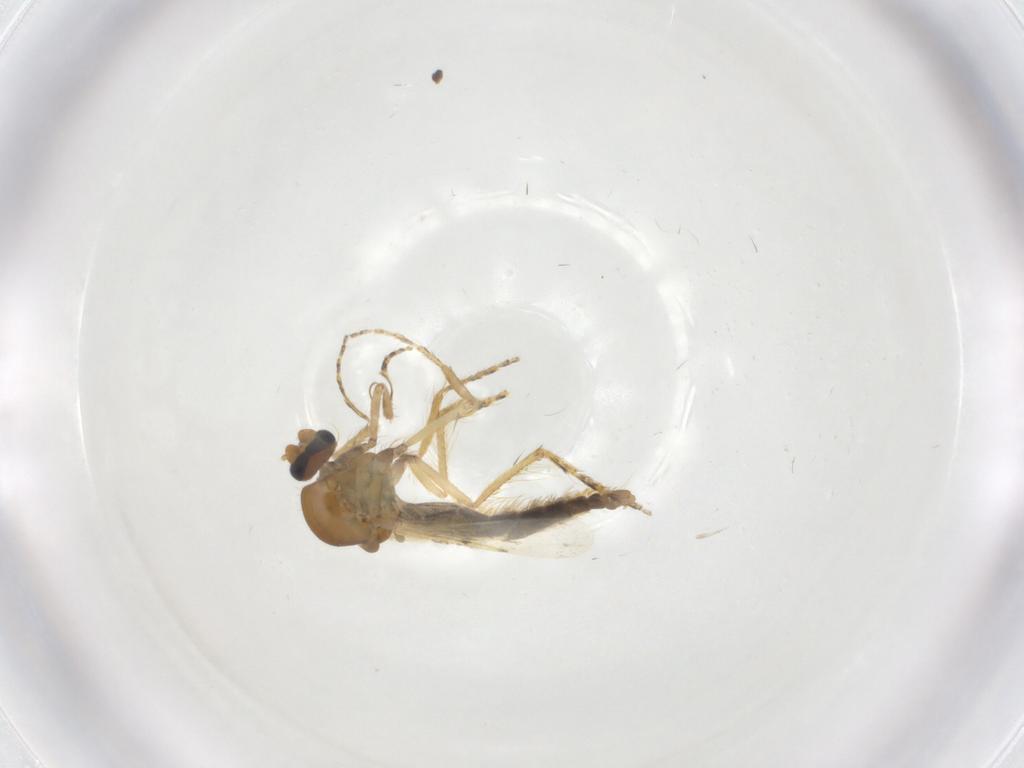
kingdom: Animalia
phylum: Arthropoda
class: Insecta
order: Diptera
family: Ceratopogonidae
